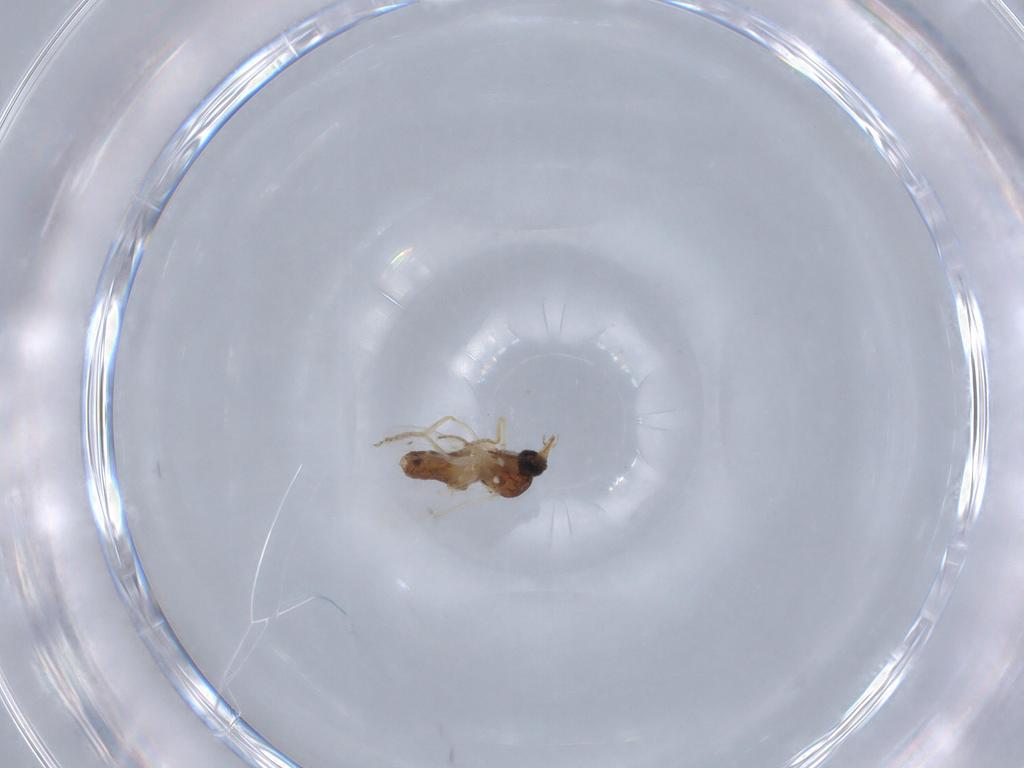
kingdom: Animalia
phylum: Arthropoda
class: Insecta
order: Diptera
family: Ceratopogonidae
